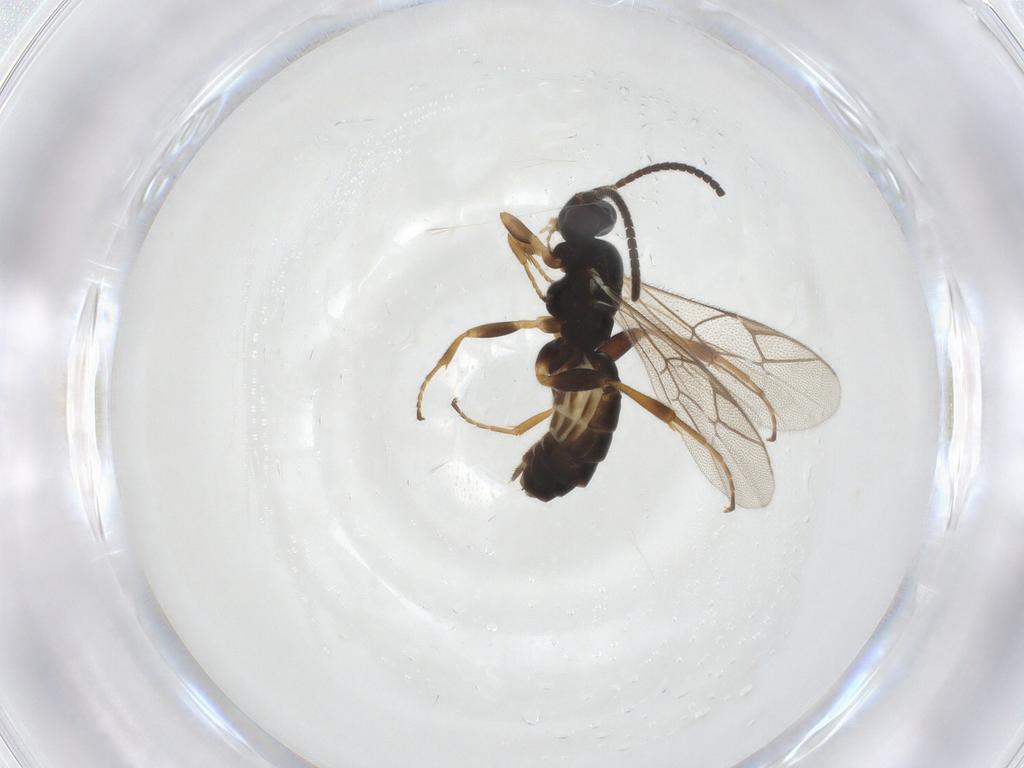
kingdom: Animalia
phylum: Arthropoda
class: Insecta
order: Hymenoptera
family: Ichneumonidae
